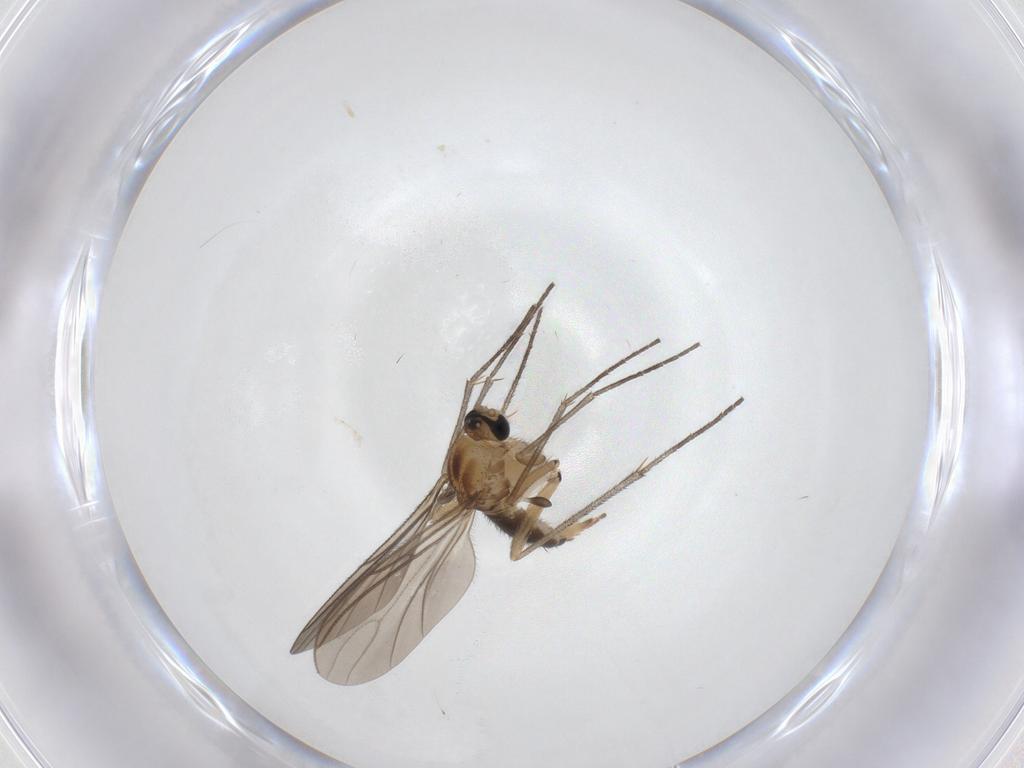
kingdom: Animalia
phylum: Arthropoda
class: Insecta
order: Diptera
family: Sciaridae
